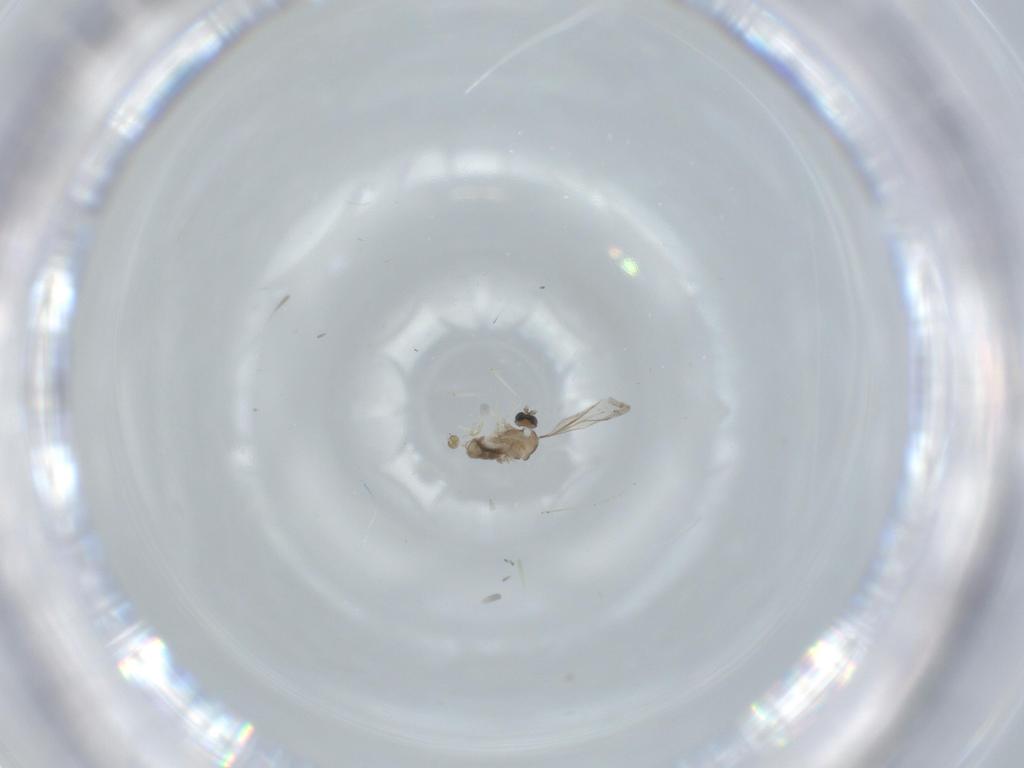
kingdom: Animalia
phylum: Arthropoda
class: Insecta
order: Diptera
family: Cecidomyiidae
